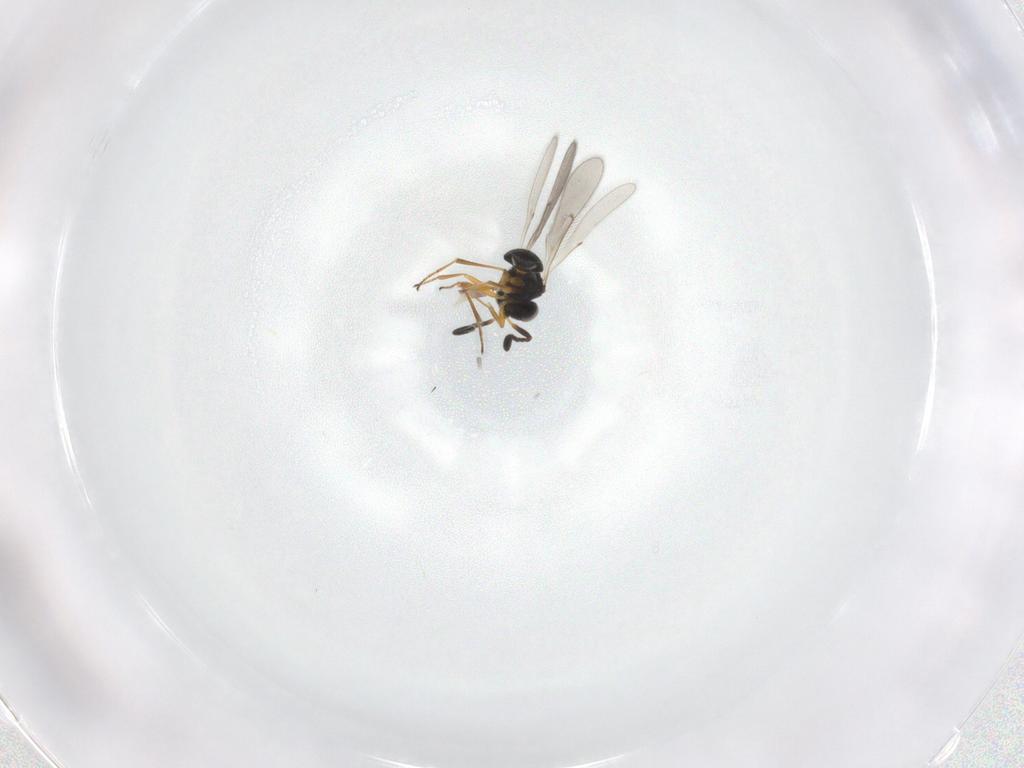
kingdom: Animalia
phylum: Arthropoda
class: Insecta
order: Hymenoptera
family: Scelionidae
